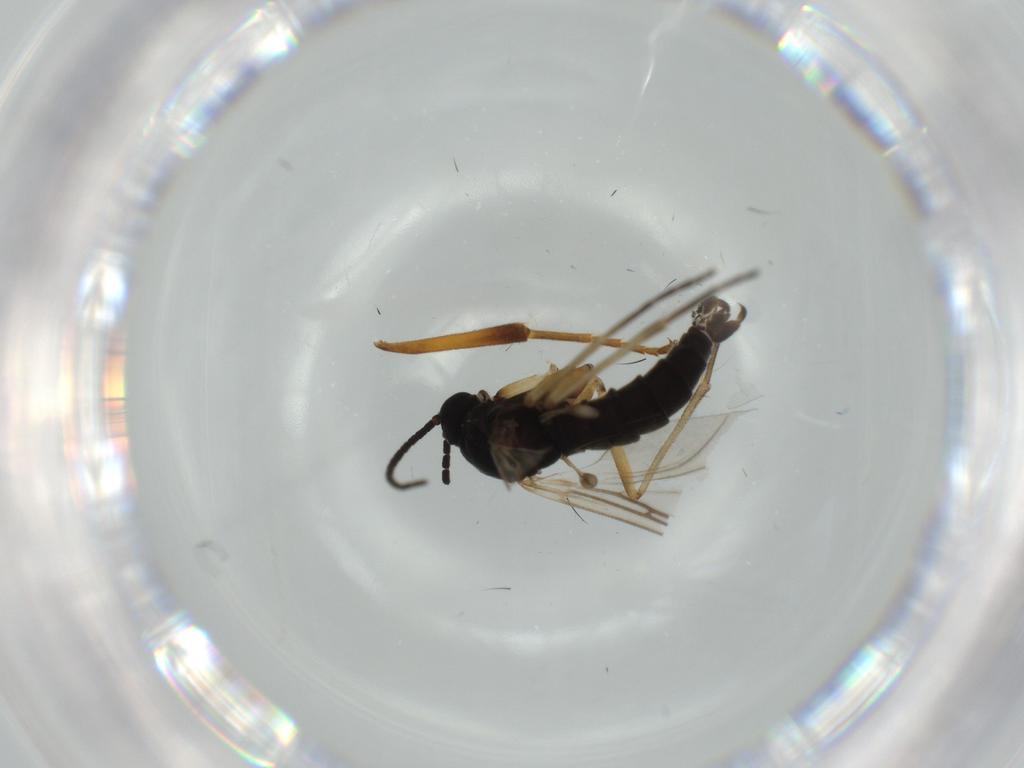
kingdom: Animalia
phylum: Arthropoda
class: Insecta
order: Diptera
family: Sciaridae
